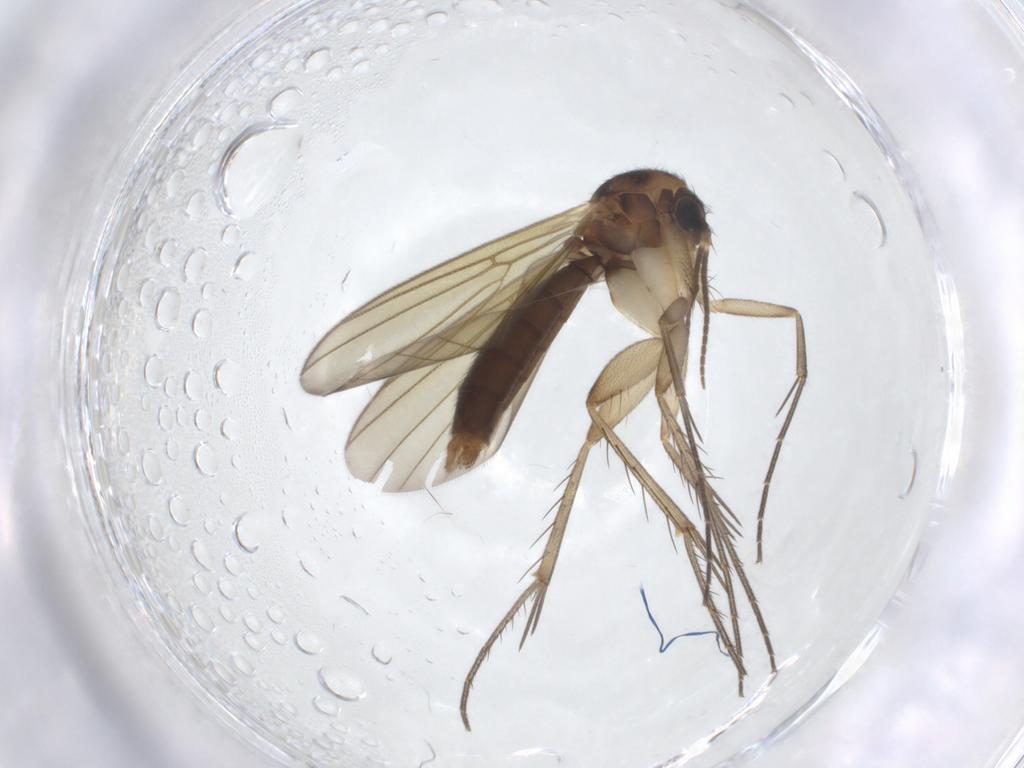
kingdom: Animalia
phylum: Arthropoda
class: Insecta
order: Diptera
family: Mycetophilidae
